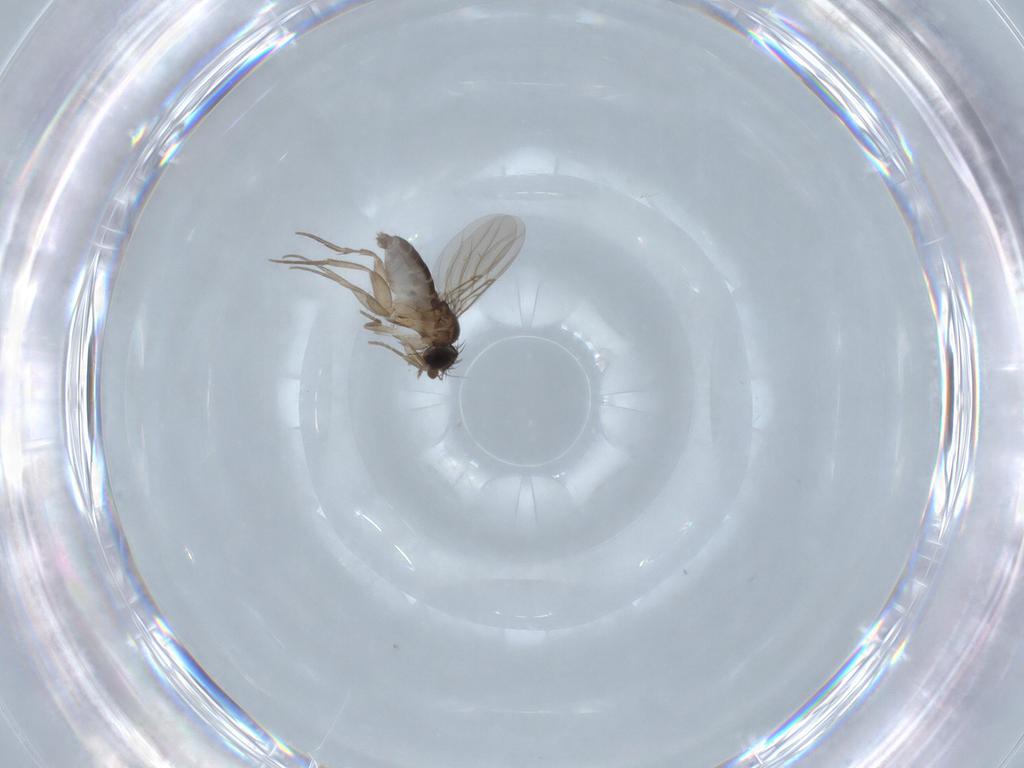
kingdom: Animalia
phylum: Arthropoda
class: Insecta
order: Diptera
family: Phoridae
